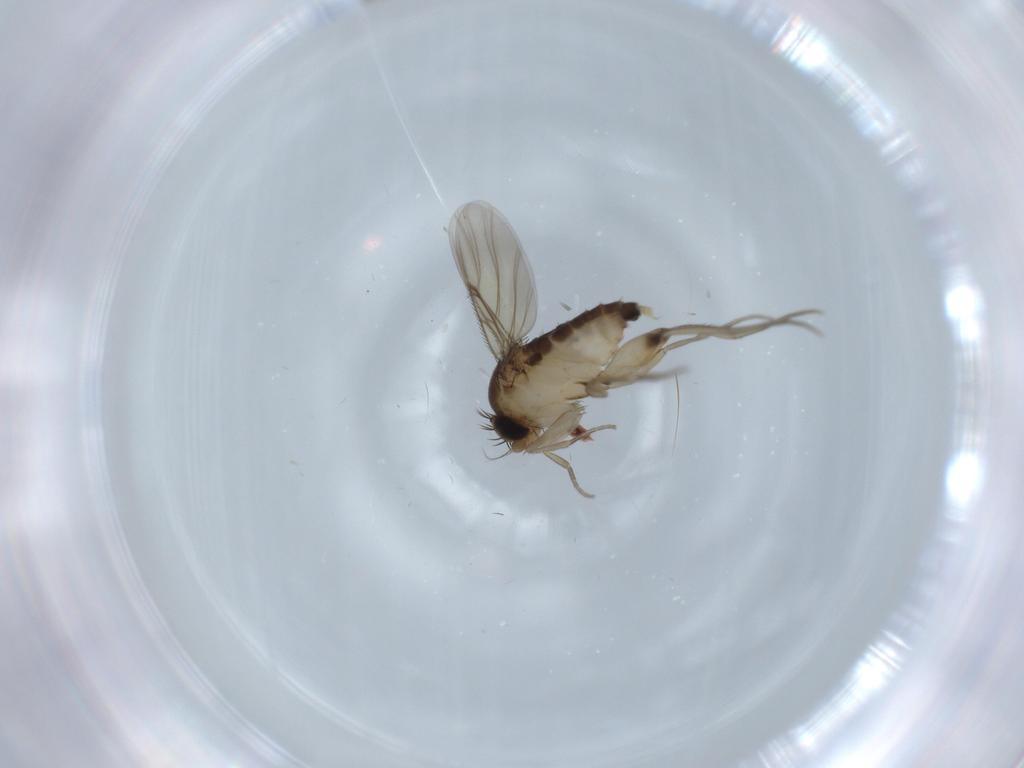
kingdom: Animalia
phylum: Arthropoda
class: Insecta
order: Diptera
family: Phoridae
